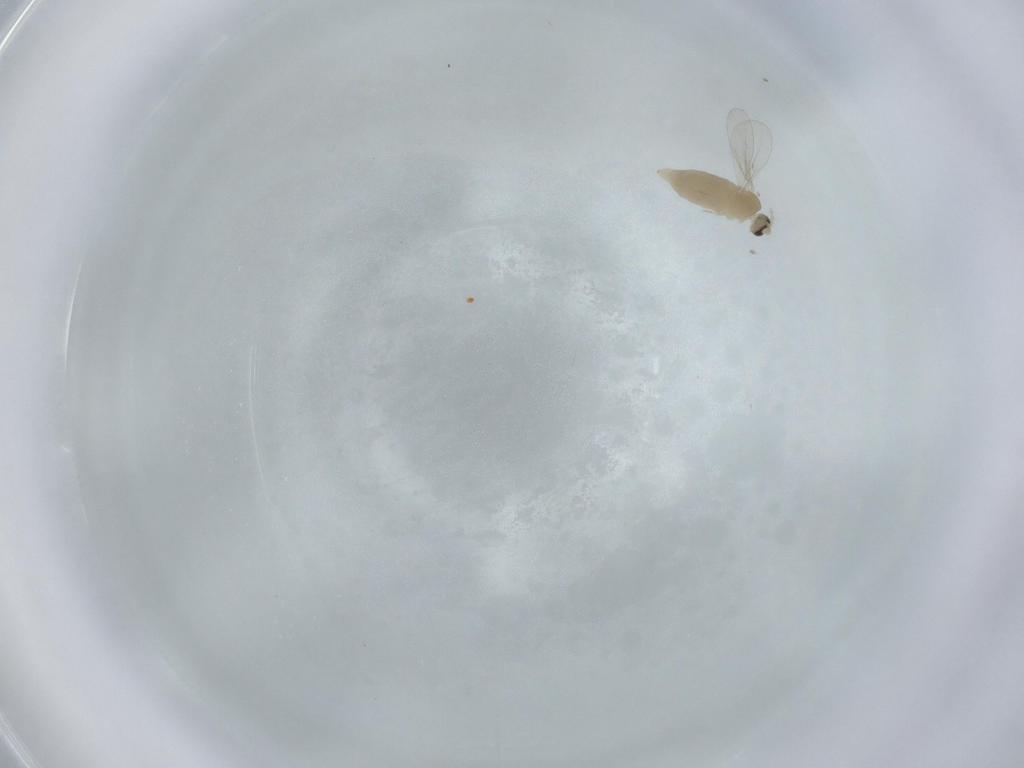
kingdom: Animalia
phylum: Arthropoda
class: Insecta
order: Diptera
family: Cecidomyiidae
